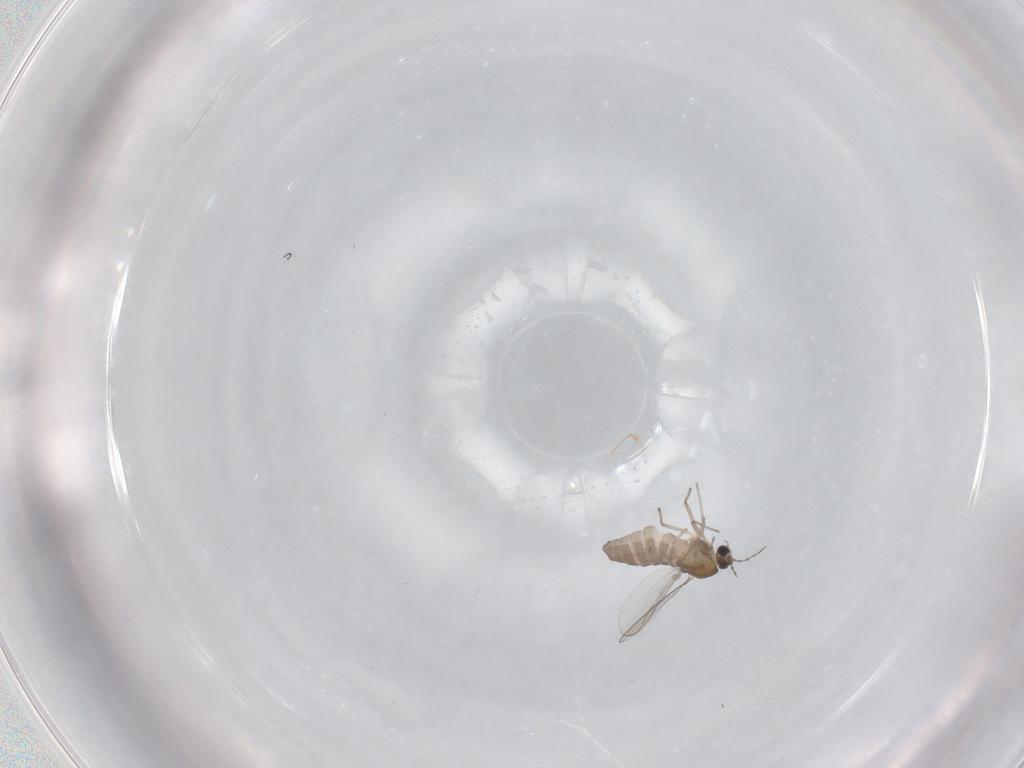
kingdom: Animalia
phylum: Arthropoda
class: Insecta
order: Diptera
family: Chironomidae
